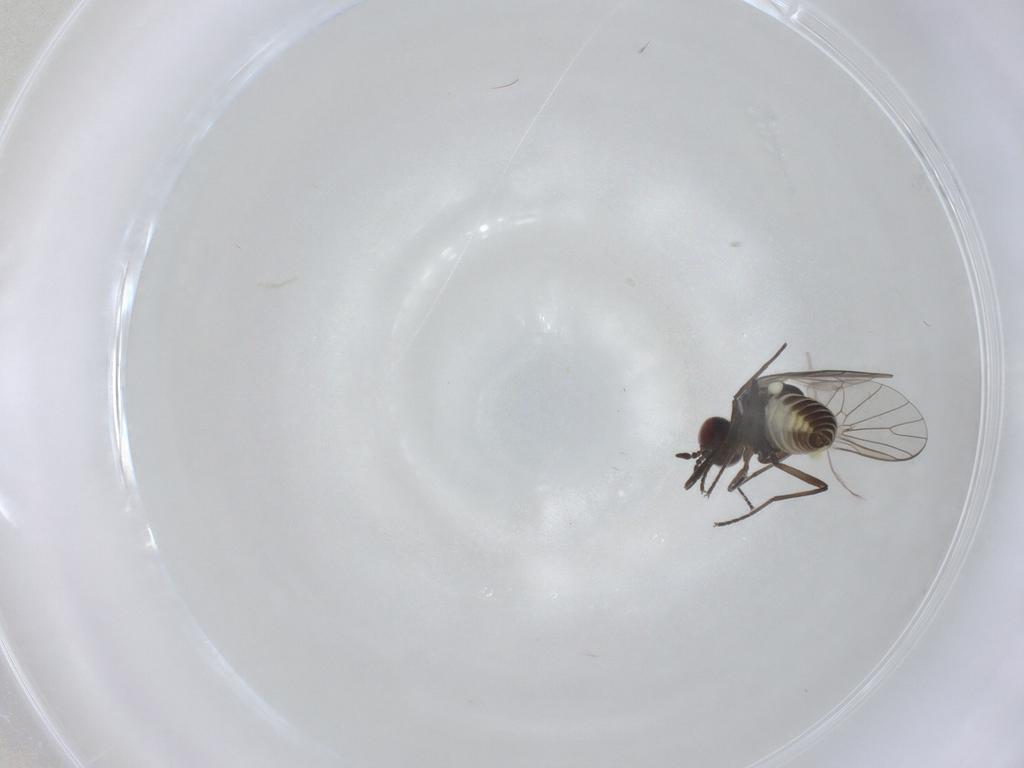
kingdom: Animalia
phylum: Arthropoda
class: Insecta
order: Diptera
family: Bombyliidae
